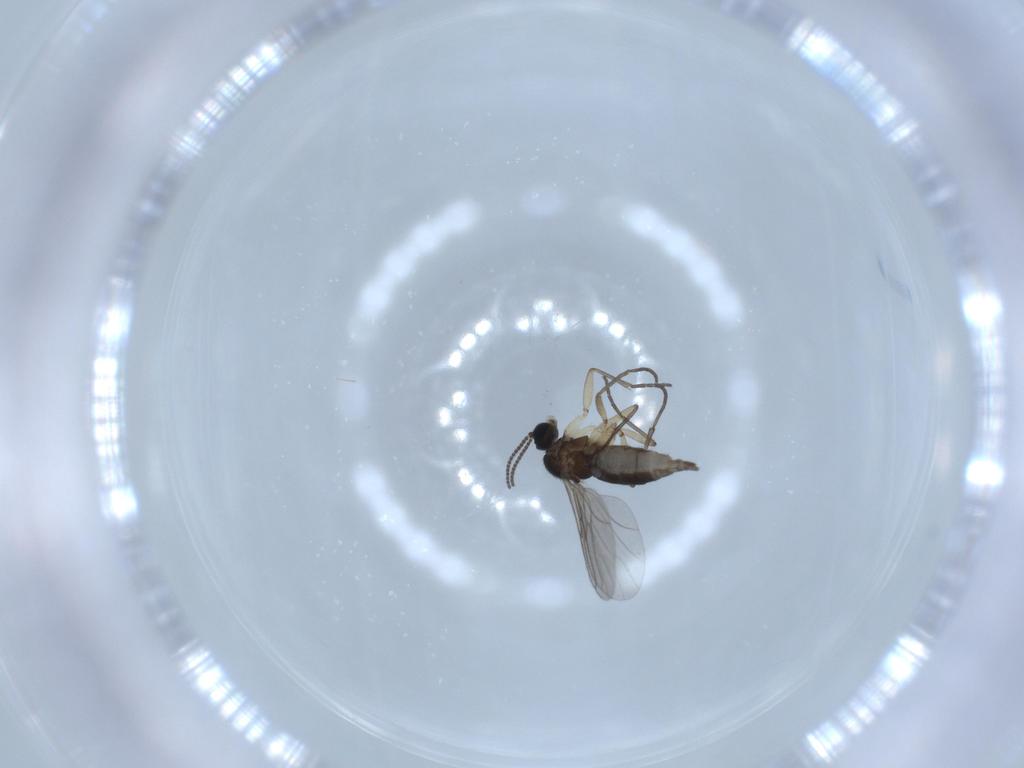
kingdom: Animalia
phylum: Arthropoda
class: Insecta
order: Diptera
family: Sciaridae
